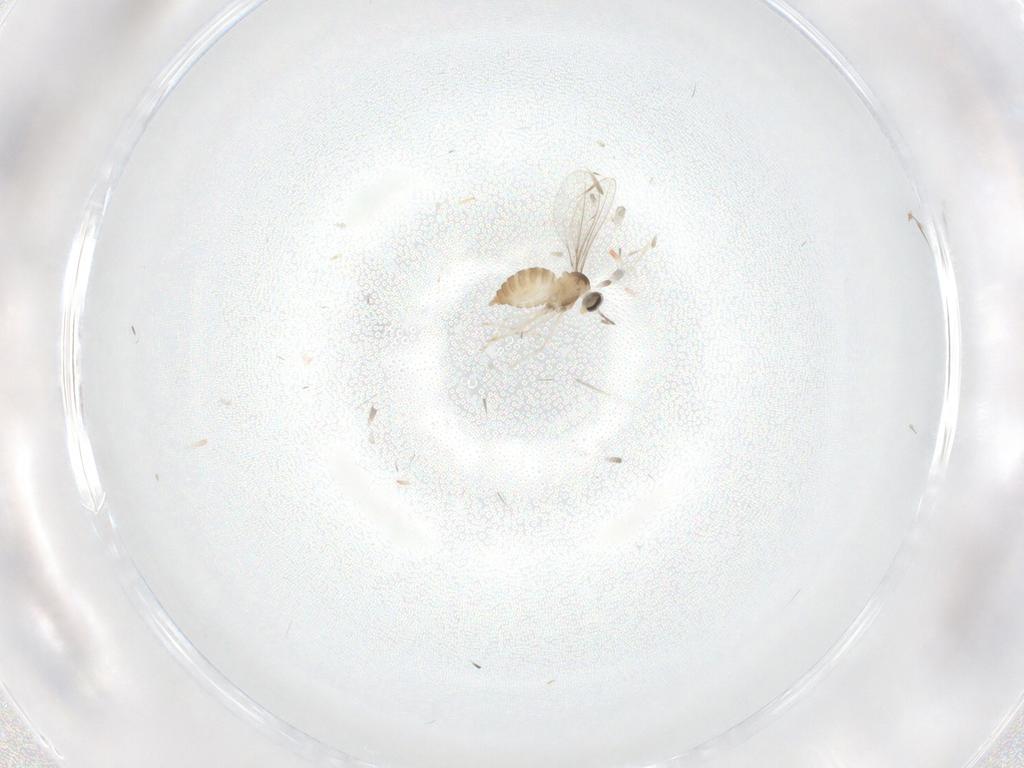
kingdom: Animalia
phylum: Arthropoda
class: Insecta
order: Diptera
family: Cecidomyiidae
